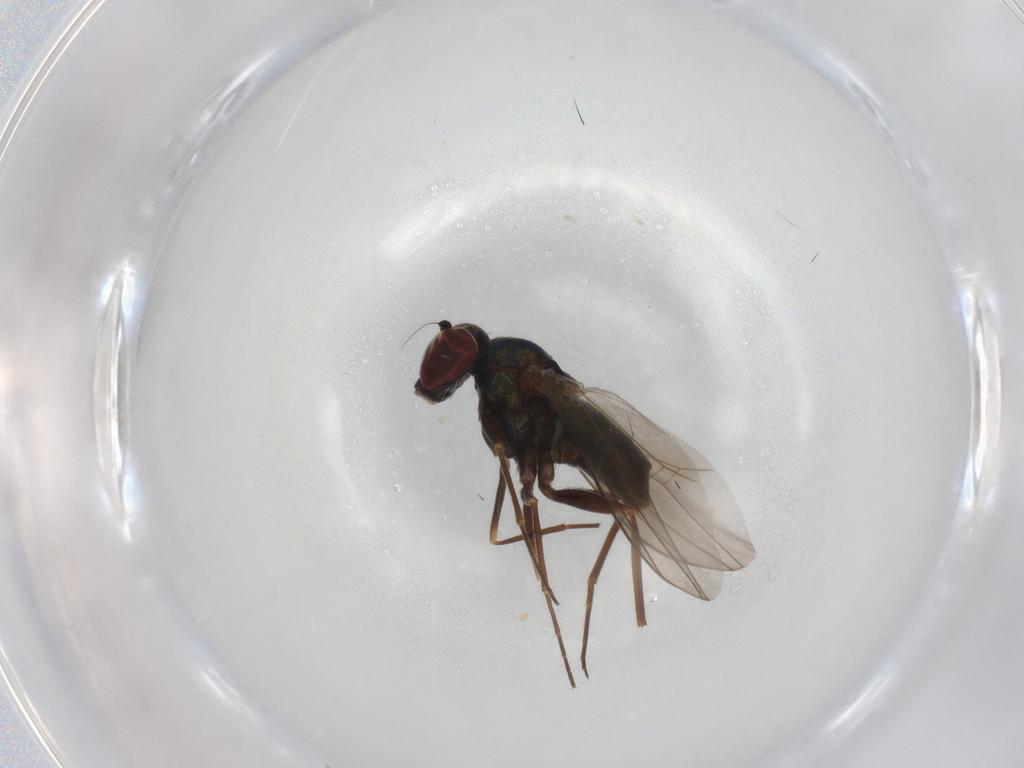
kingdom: Animalia
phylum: Arthropoda
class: Insecta
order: Diptera
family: Muscidae
